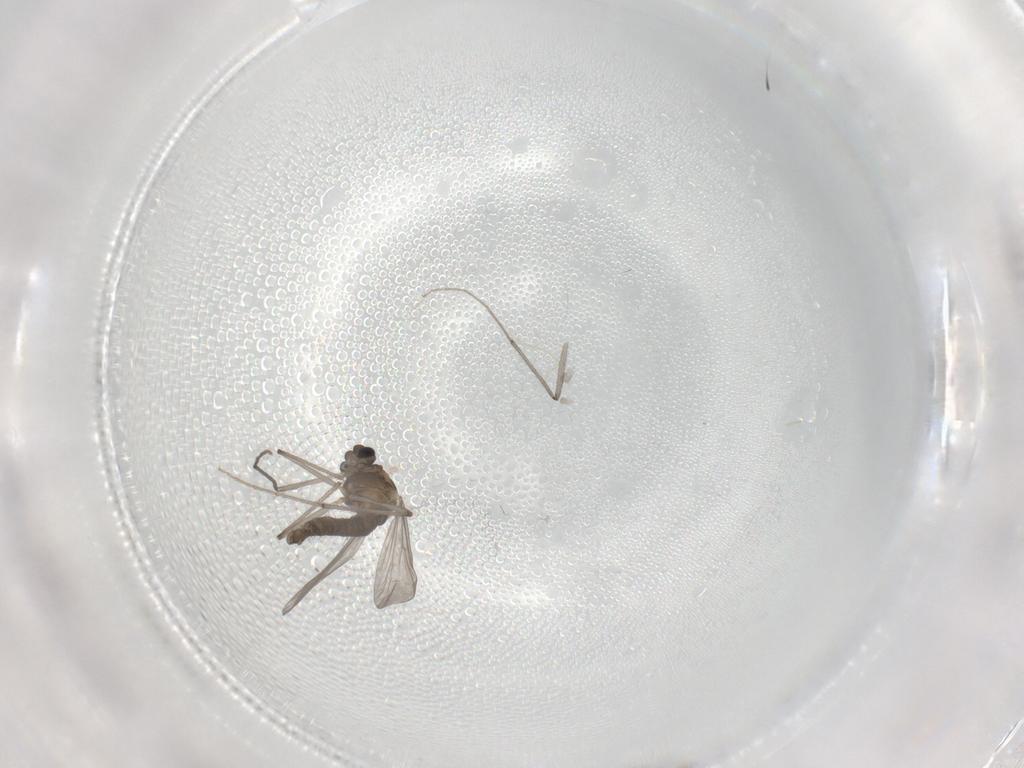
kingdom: Animalia
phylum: Arthropoda
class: Insecta
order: Diptera
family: Chironomidae
